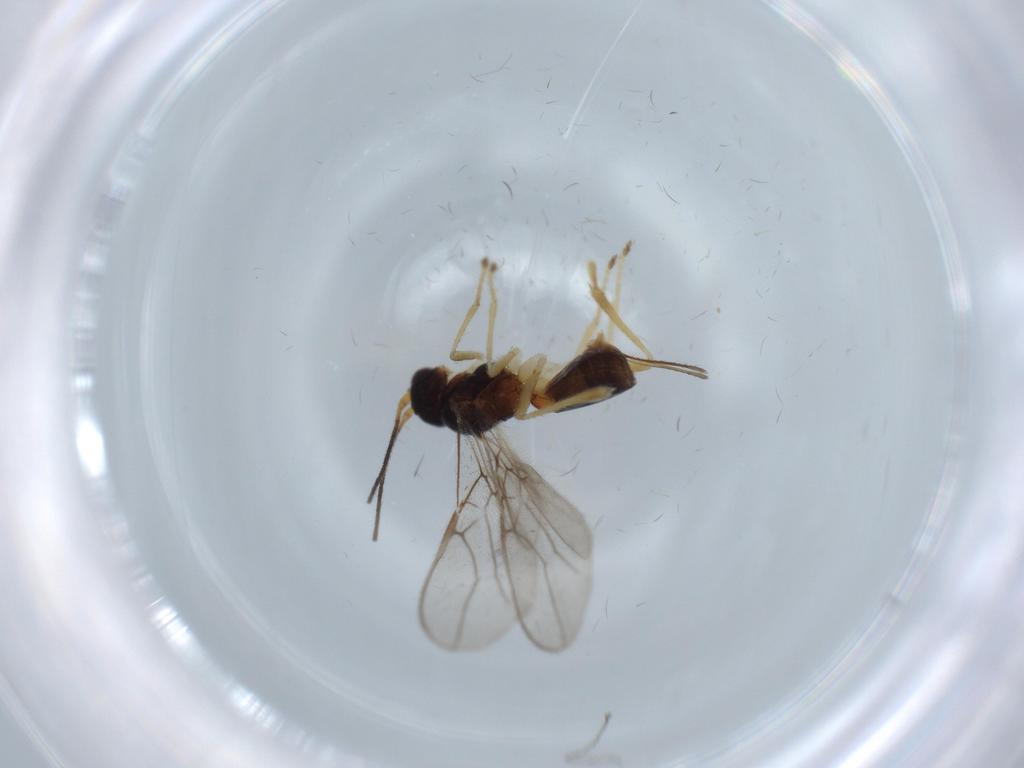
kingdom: Animalia
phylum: Arthropoda
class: Insecta
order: Hymenoptera
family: Braconidae
